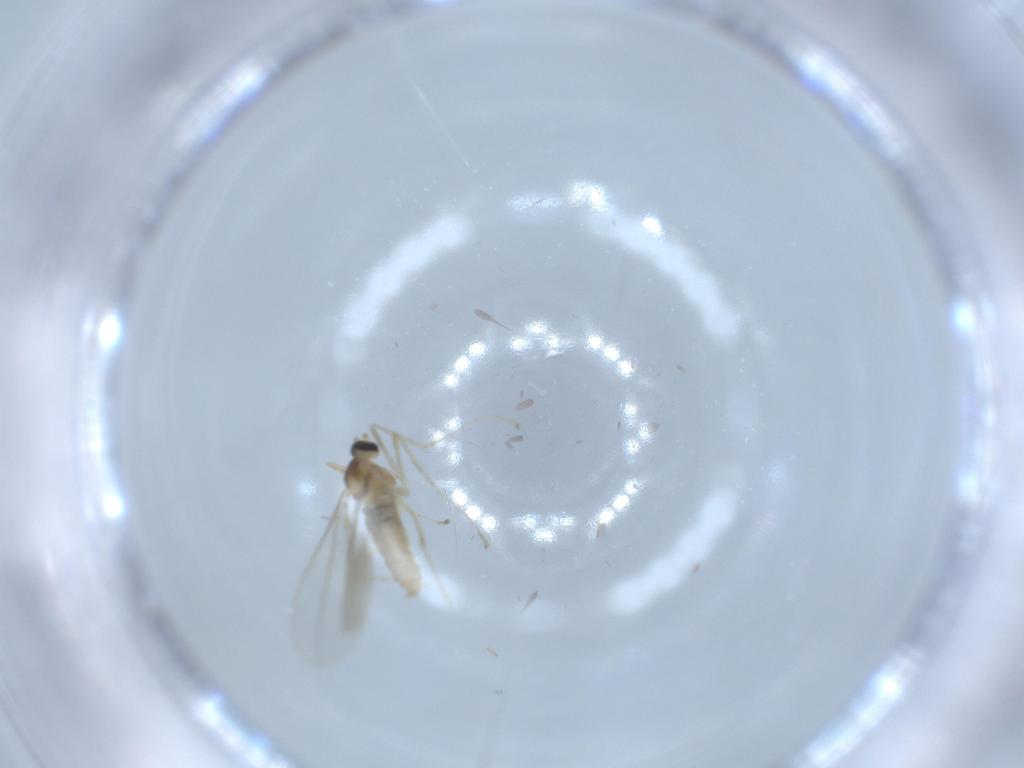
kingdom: Animalia
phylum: Arthropoda
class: Insecta
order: Diptera
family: Cecidomyiidae
